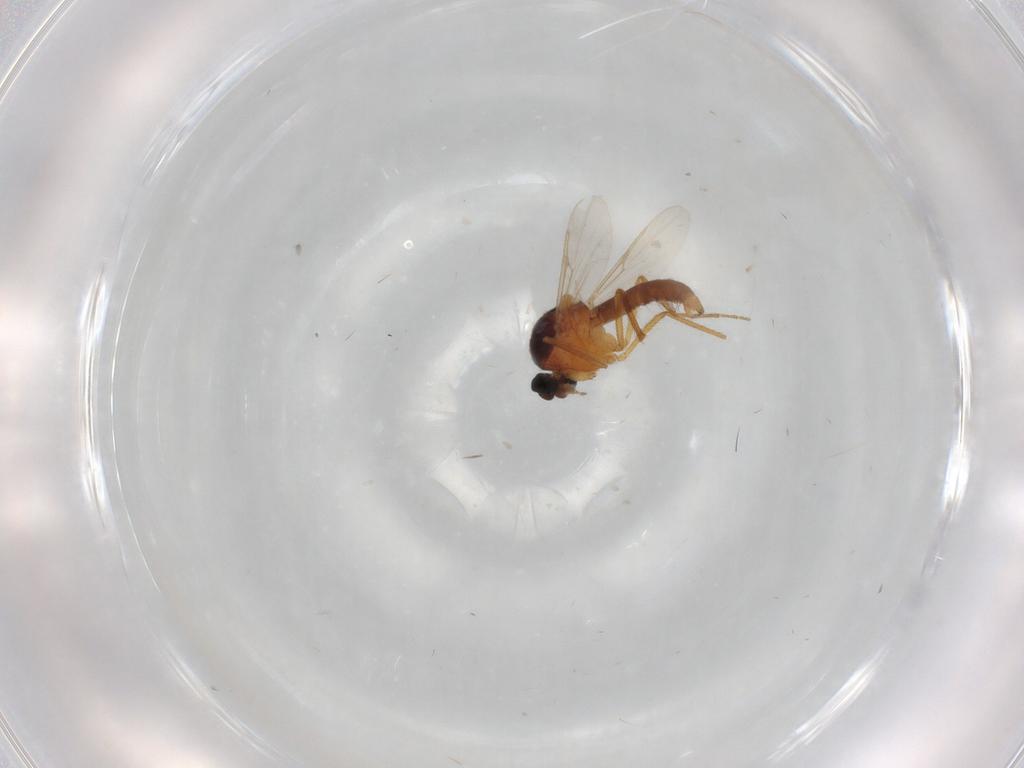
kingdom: Animalia
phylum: Arthropoda
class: Insecta
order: Diptera
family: Ceratopogonidae
